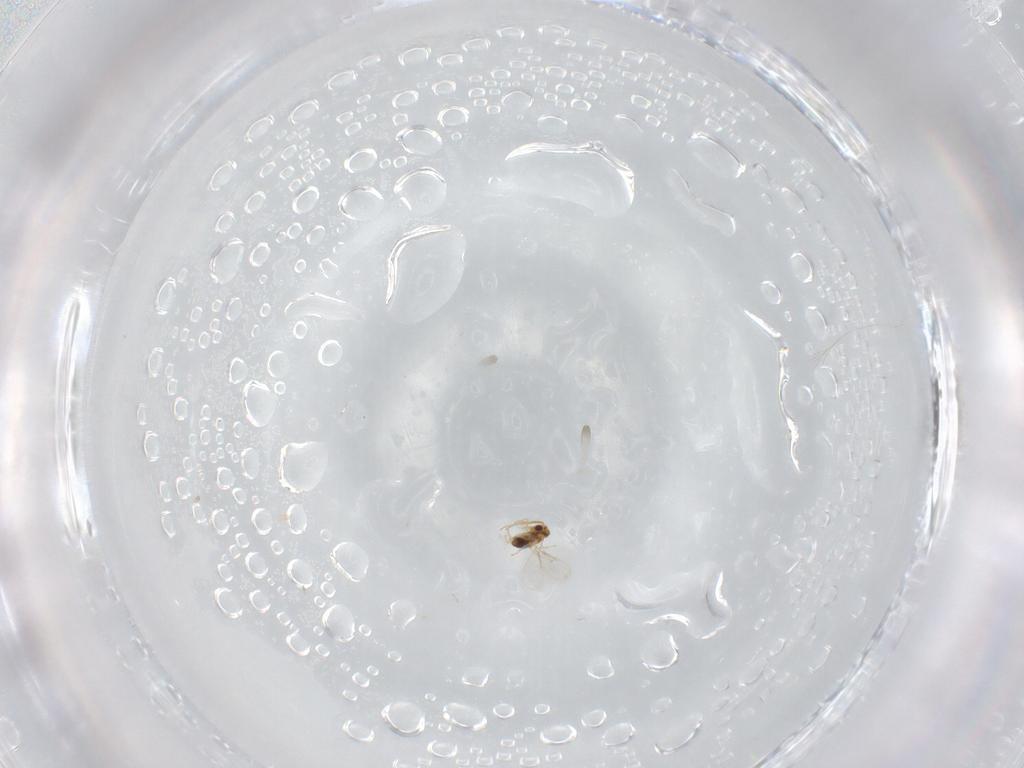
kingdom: Animalia
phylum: Arthropoda
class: Insecta
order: Hymenoptera
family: Aphelinidae
